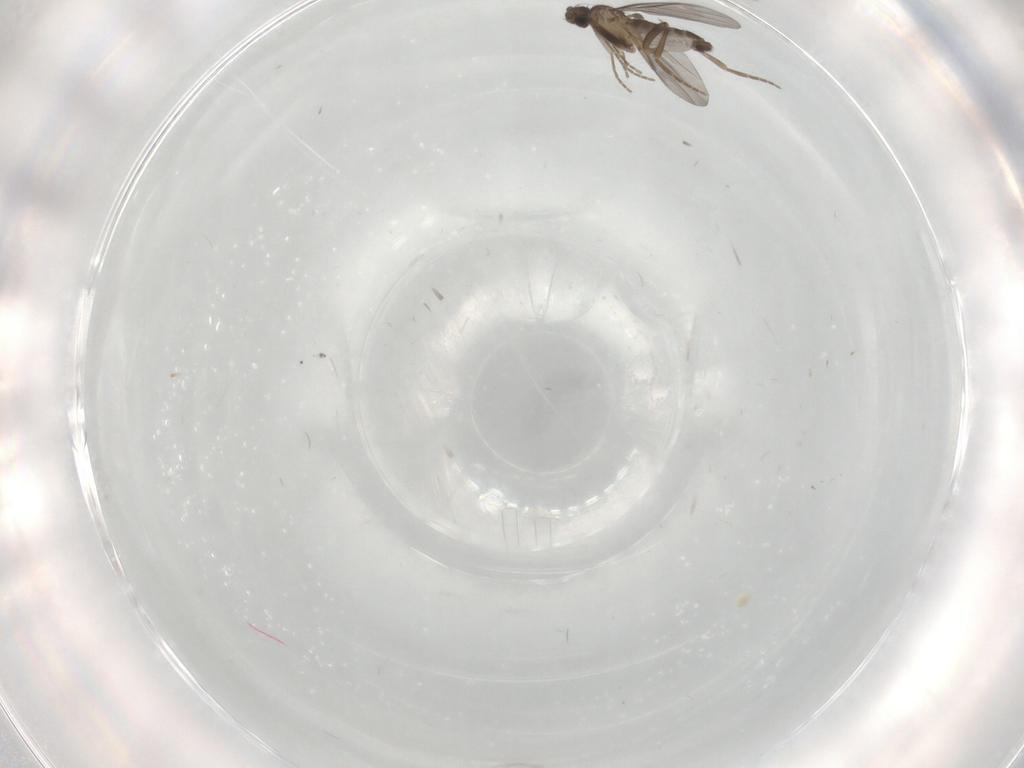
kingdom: Animalia
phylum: Arthropoda
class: Insecta
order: Diptera
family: Phoridae
